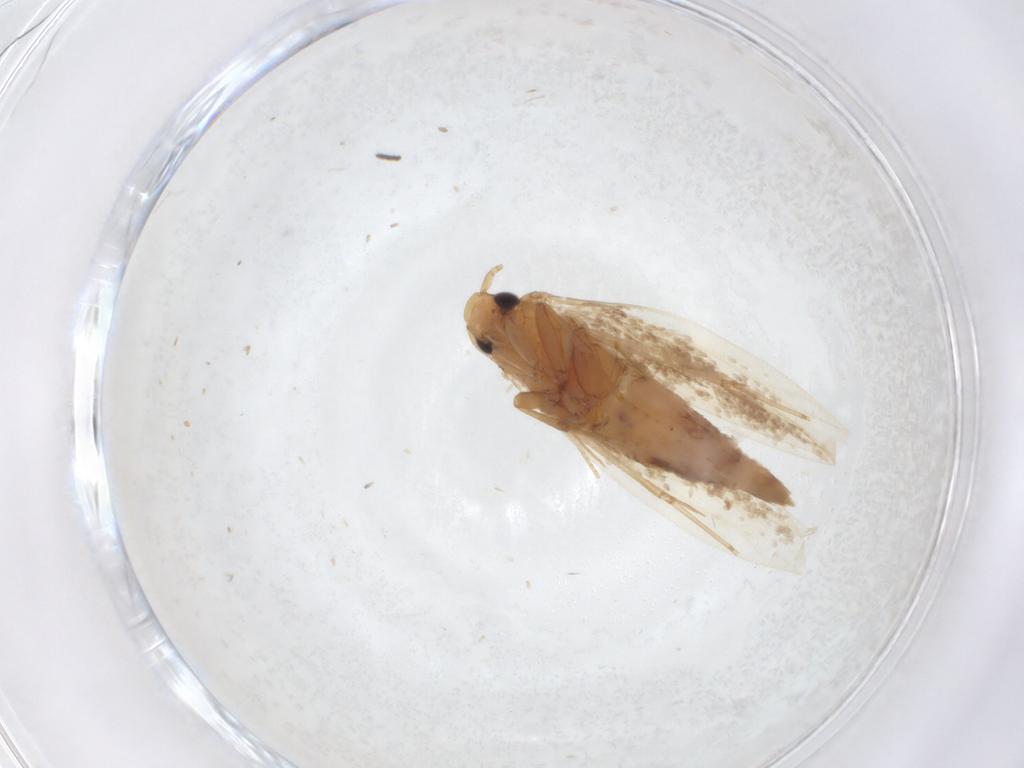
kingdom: Animalia
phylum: Arthropoda
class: Insecta
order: Lepidoptera
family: Tineidae
